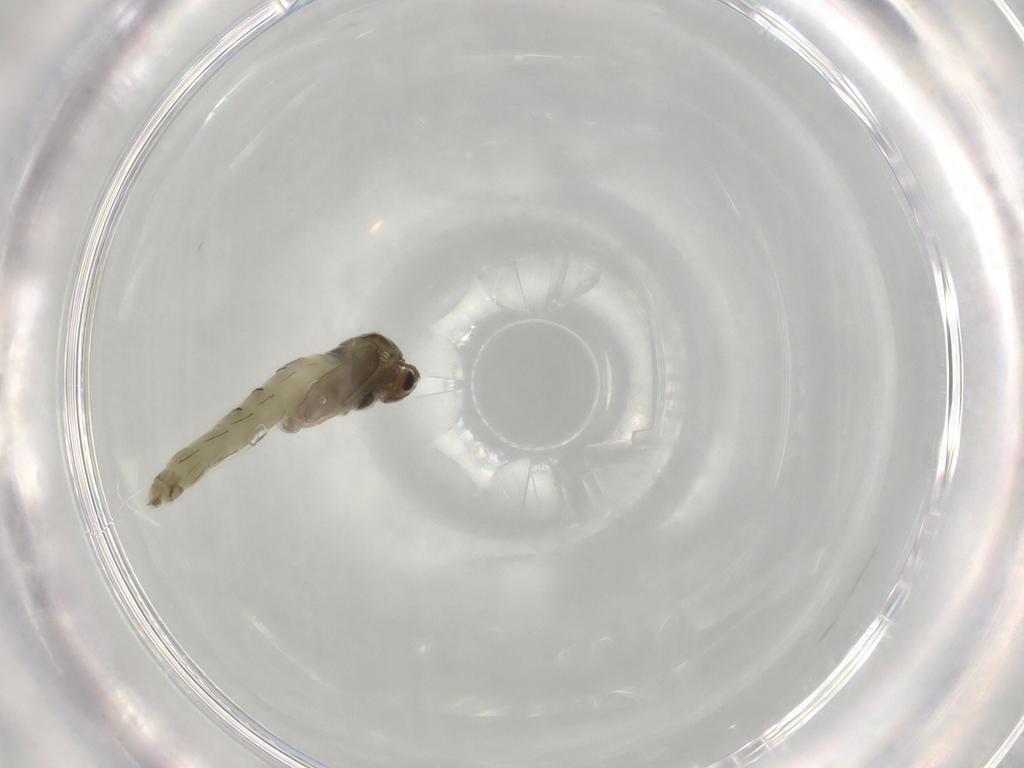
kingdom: Animalia
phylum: Arthropoda
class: Insecta
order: Diptera
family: Chironomidae
